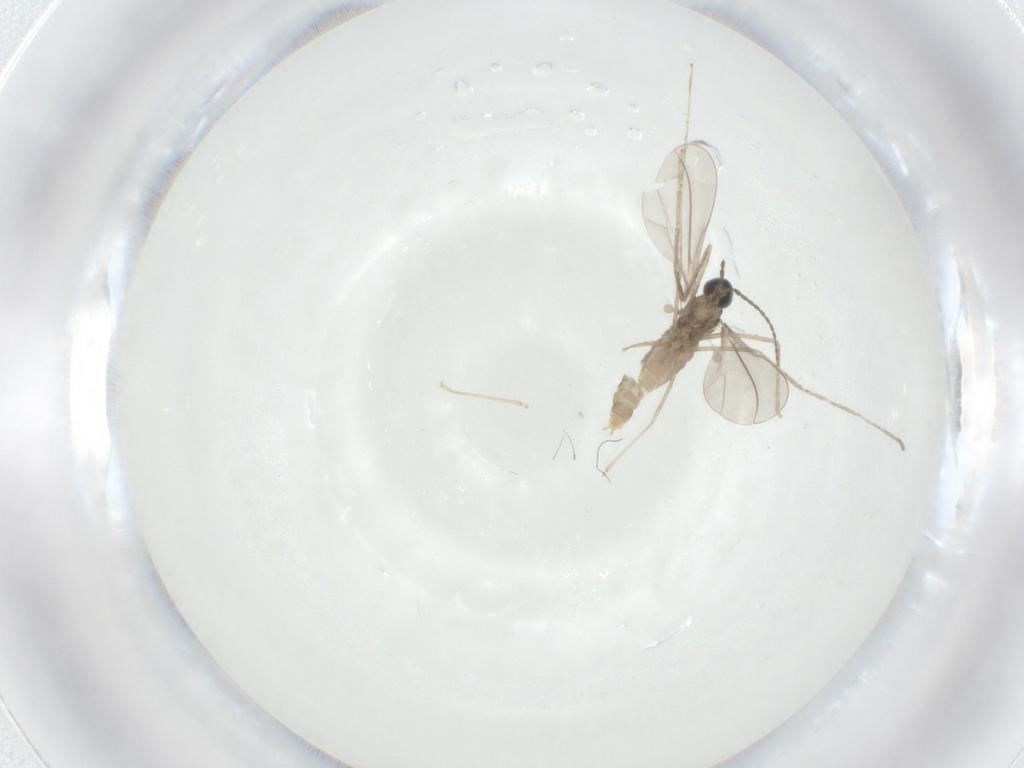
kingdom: Animalia
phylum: Arthropoda
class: Insecta
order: Diptera
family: Cecidomyiidae
